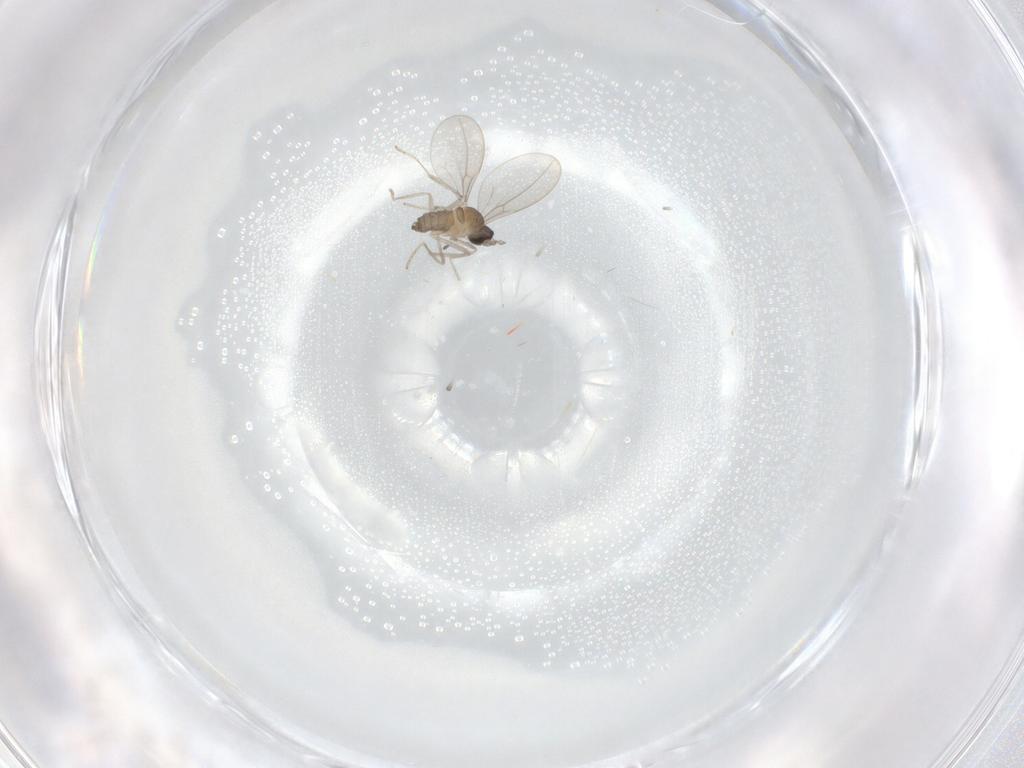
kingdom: Animalia
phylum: Arthropoda
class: Insecta
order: Diptera
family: Cecidomyiidae
